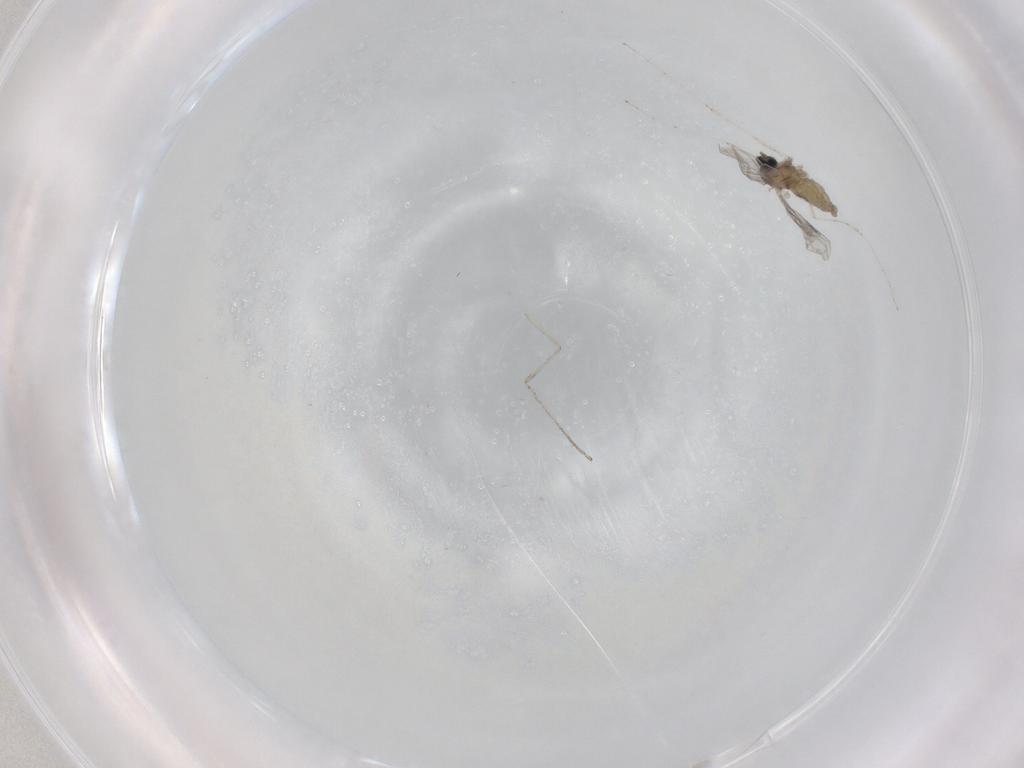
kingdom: Animalia
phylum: Arthropoda
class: Insecta
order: Diptera
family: Cecidomyiidae
